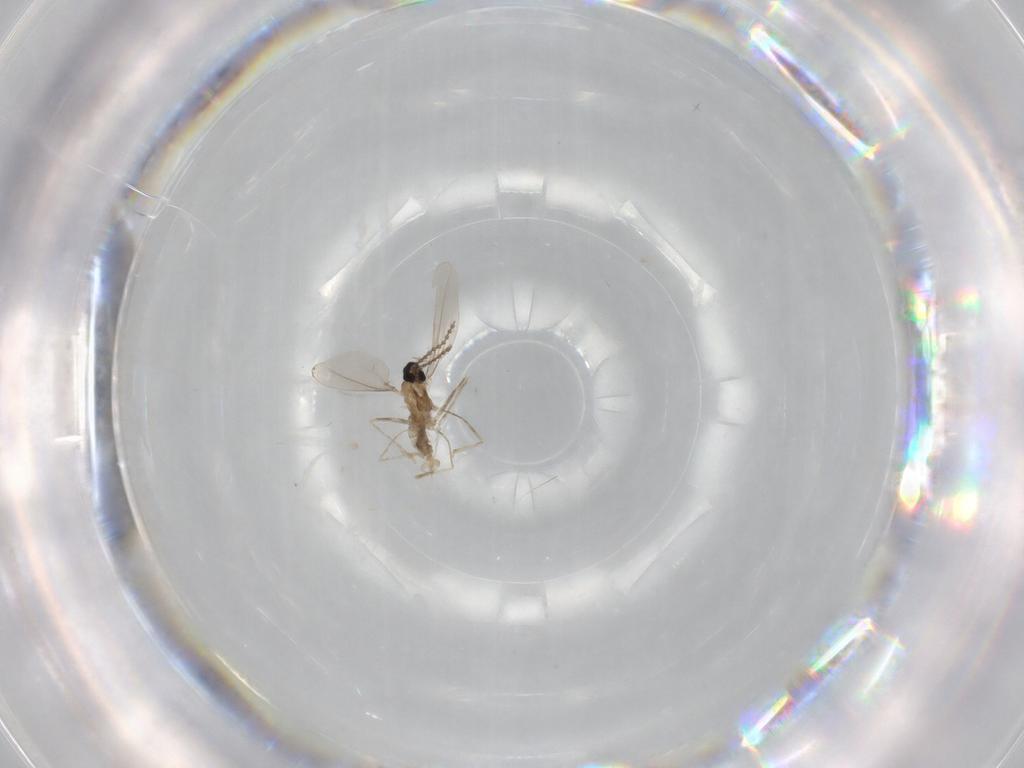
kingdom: Animalia
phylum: Arthropoda
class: Insecta
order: Diptera
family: Cecidomyiidae
